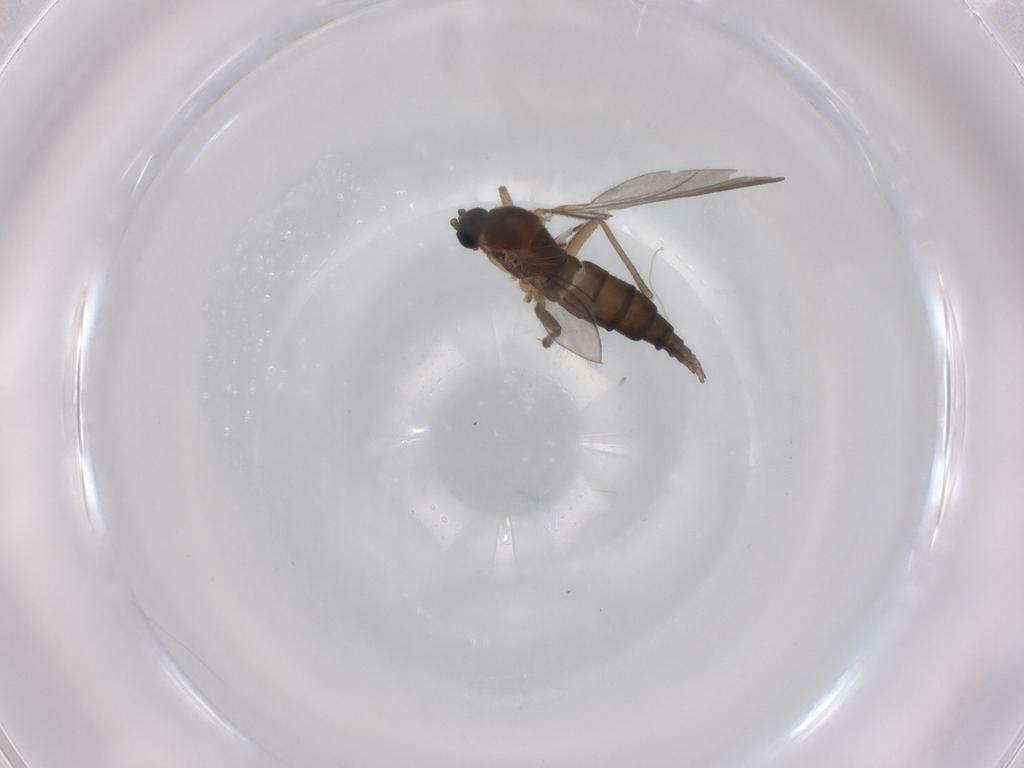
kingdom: Animalia
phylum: Arthropoda
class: Insecta
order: Diptera
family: Sciaridae
